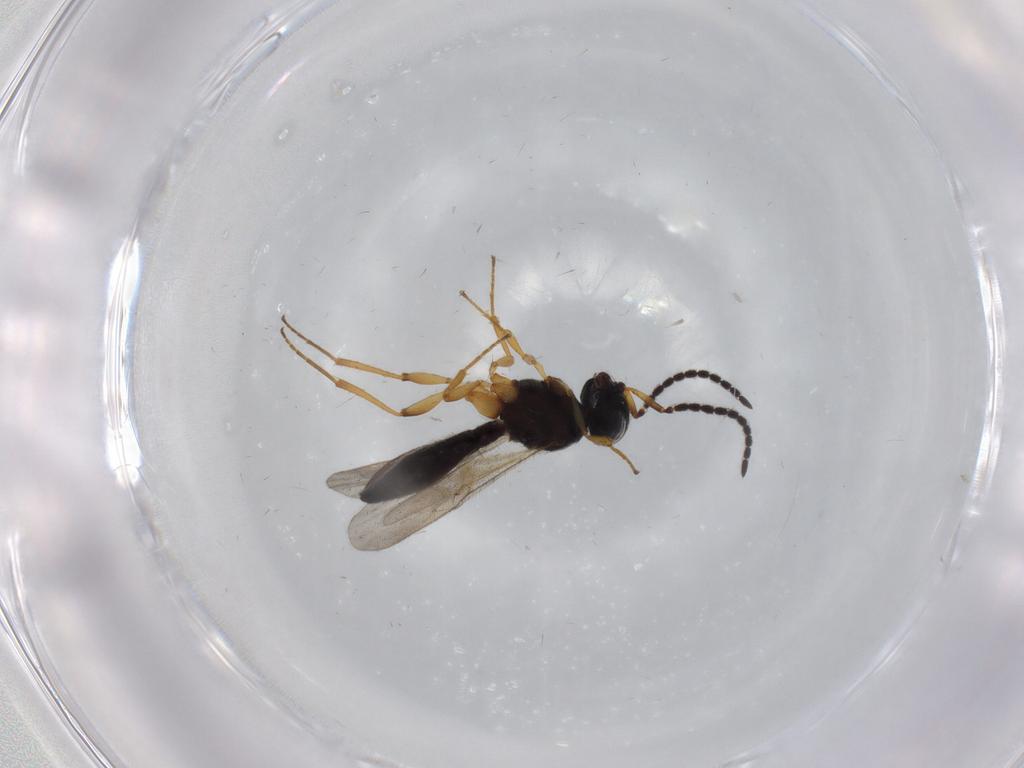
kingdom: Animalia
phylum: Arthropoda
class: Insecta
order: Hymenoptera
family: Scelionidae
